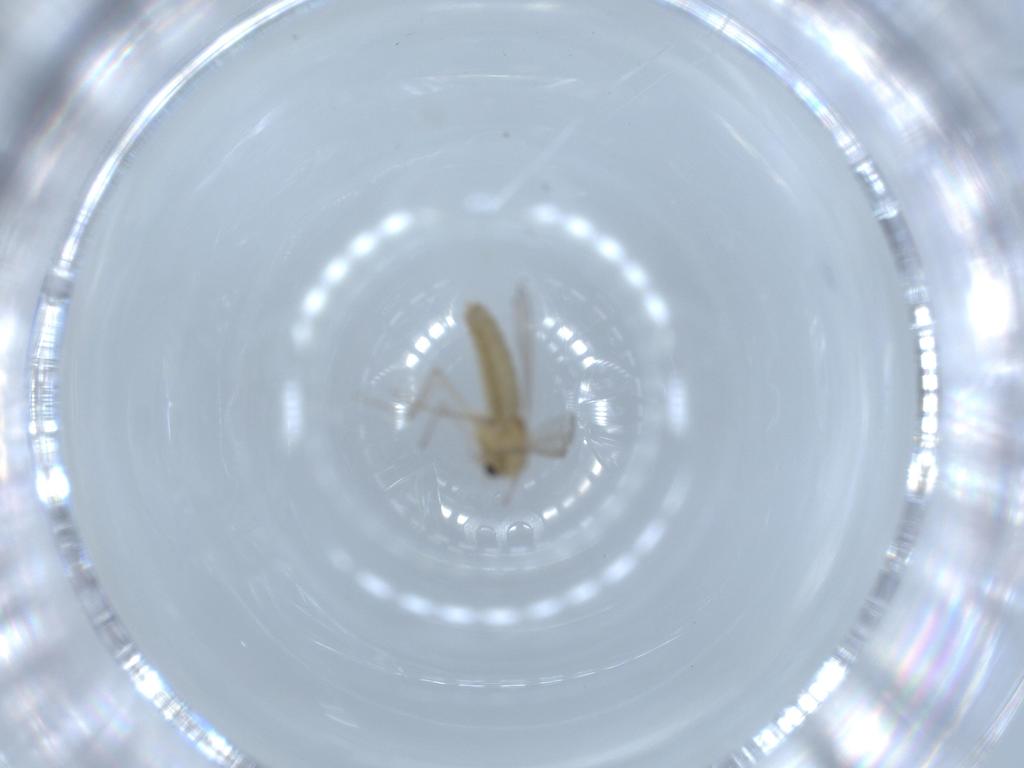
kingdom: Animalia
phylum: Arthropoda
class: Insecta
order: Diptera
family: Chironomidae
